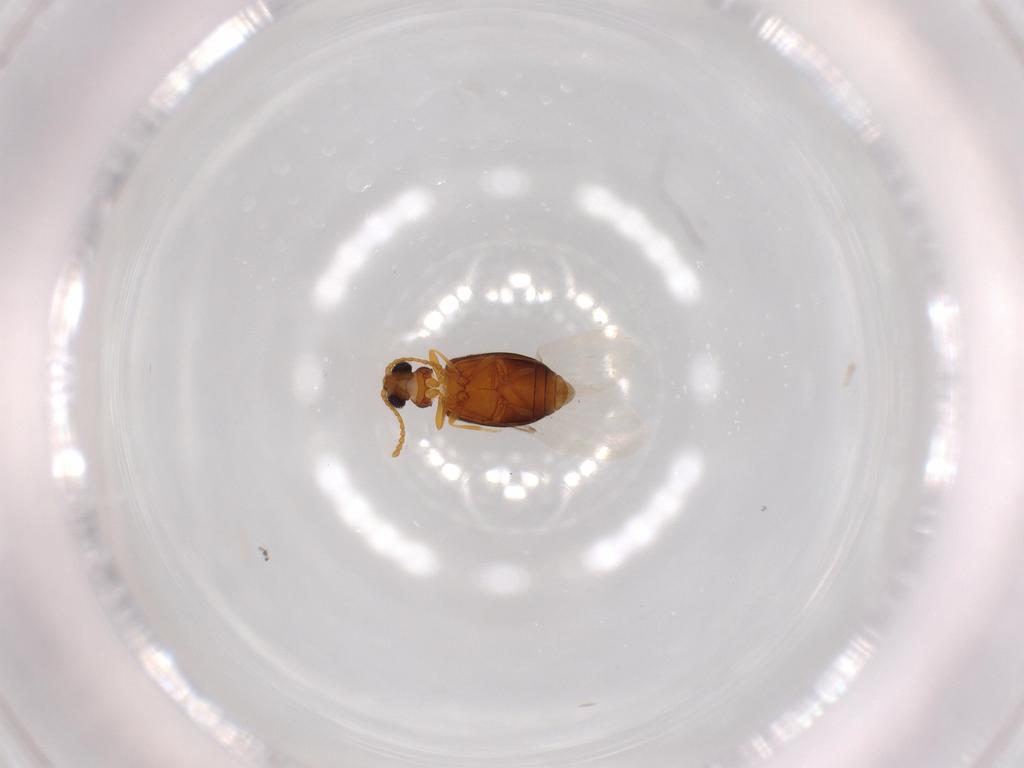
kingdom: Animalia
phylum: Arthropoda
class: Insecta
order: Coleoptera
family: Aderidae
